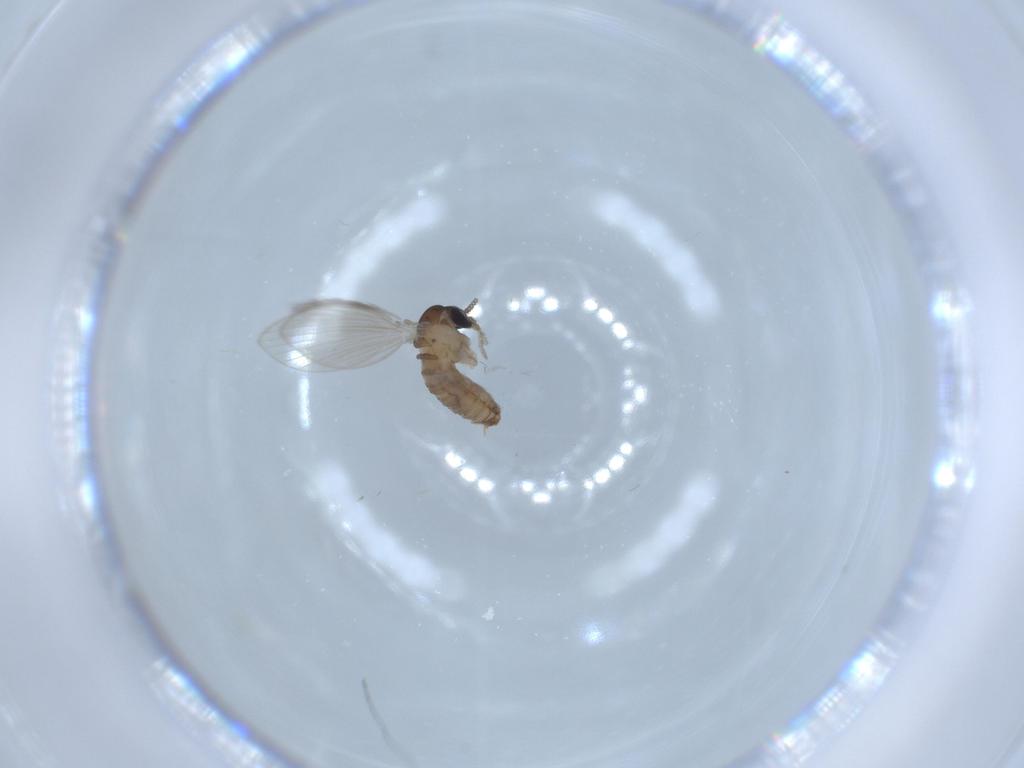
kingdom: Animalia
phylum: Arthropoda
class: Insecta
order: Diptera
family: Psychodidae
